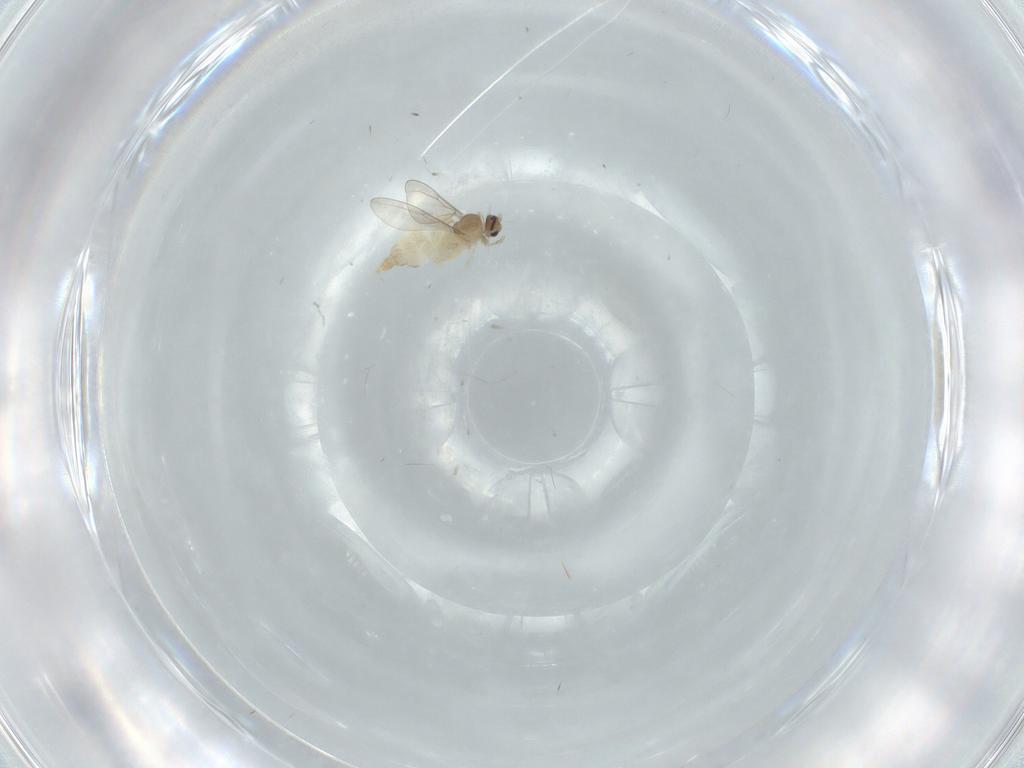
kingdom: Animalia
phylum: Arthropoda
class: Insecta
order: Diptera
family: Cecidomyiidae
